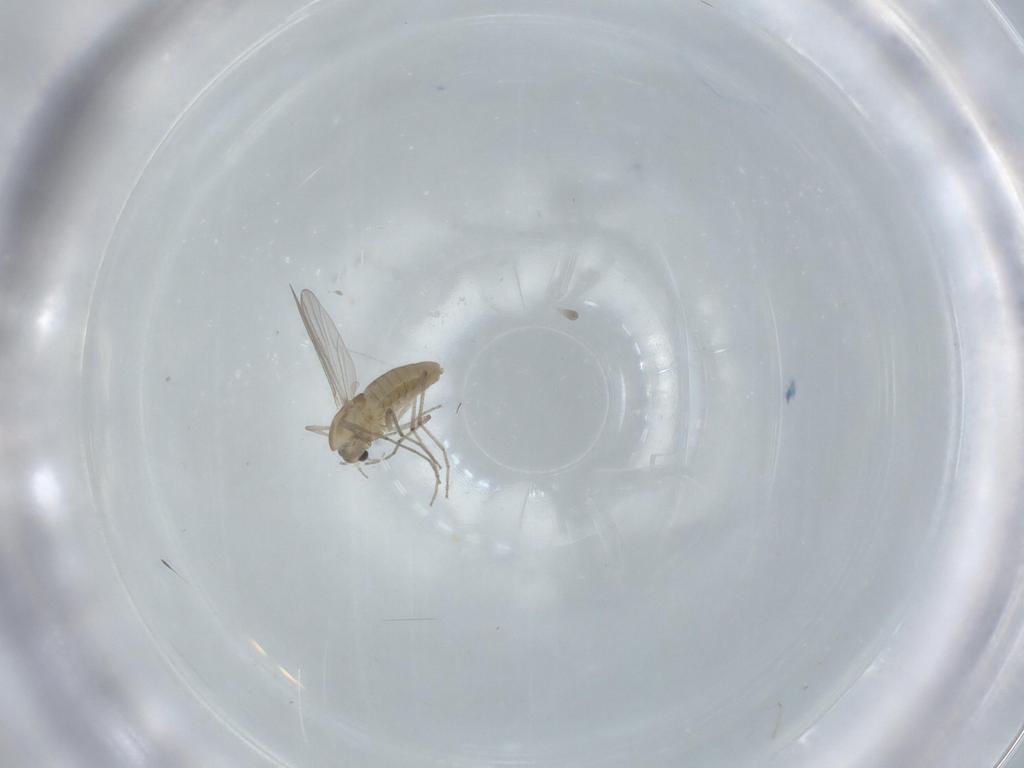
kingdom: Animalia
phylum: Arthropoda
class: Insecta
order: Diptera
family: Chironomidae
